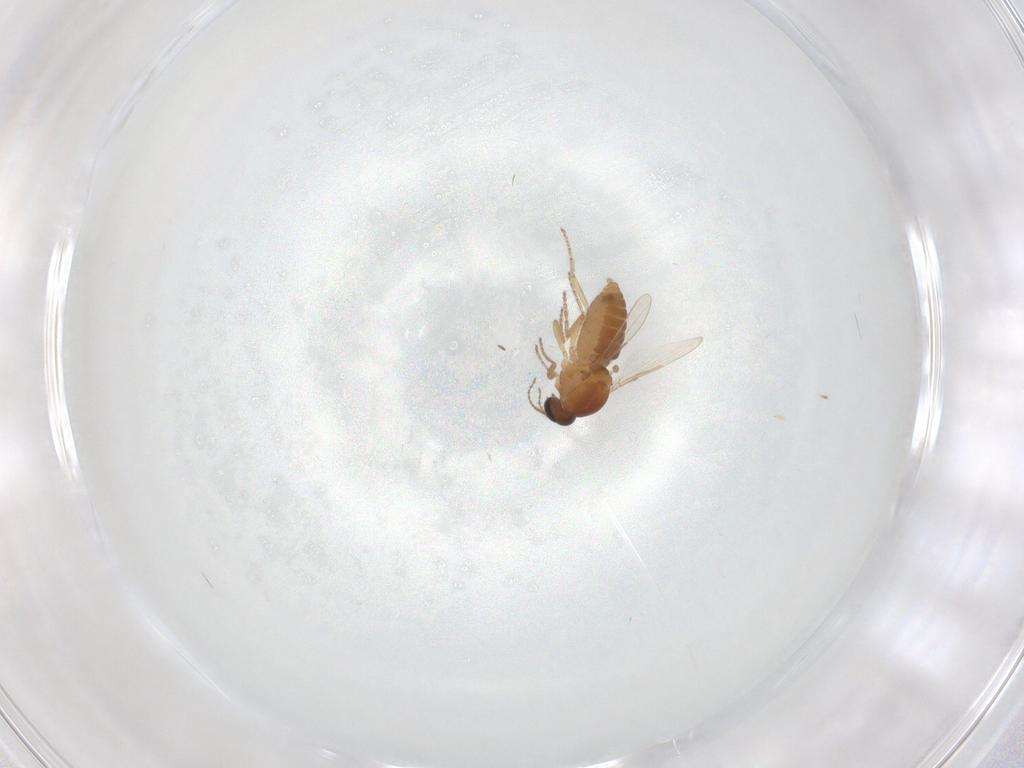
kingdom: Animalia
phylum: Arthropoda
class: Insecta
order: Diptera
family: Ceratopogonidae
